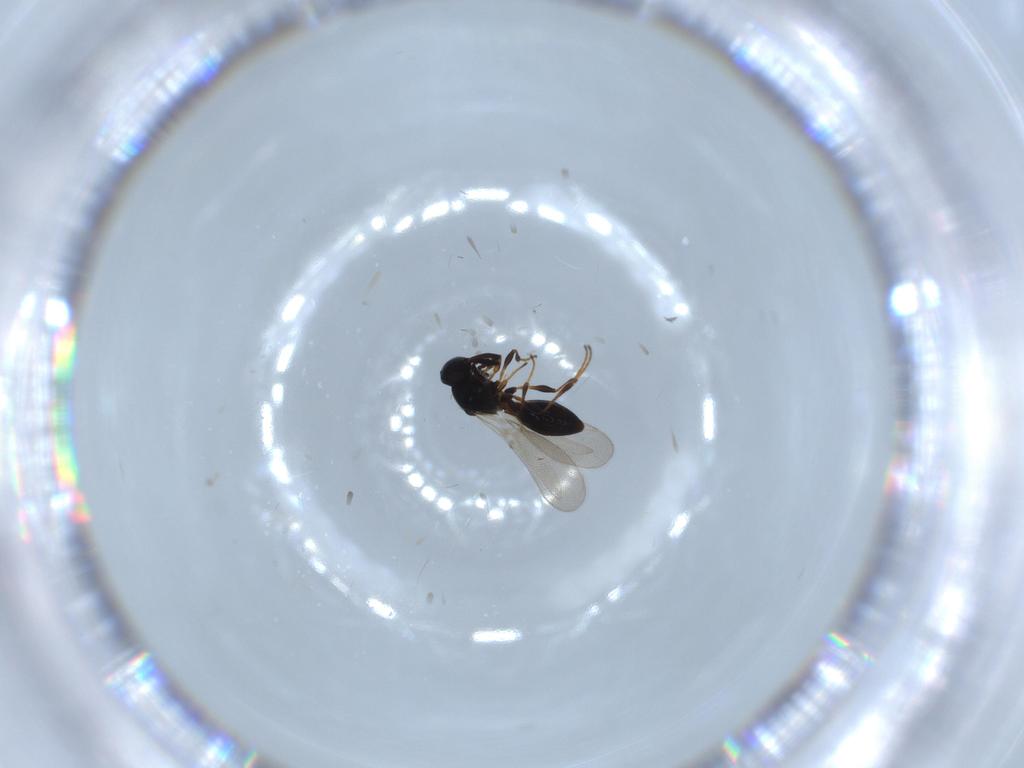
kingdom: Animalia
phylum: Arthropoda
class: Insecta
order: Hymenoptera
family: Platygastridae
